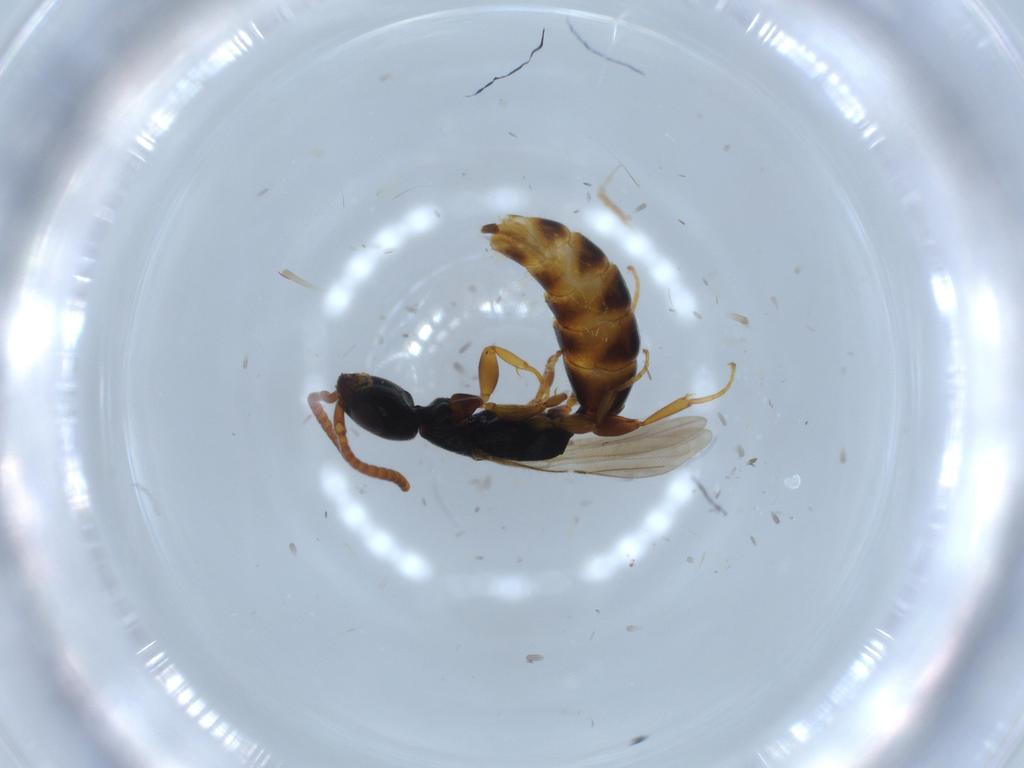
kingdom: Animalia
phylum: Arthropoda
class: Insecta
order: Hymenoptera
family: Bethylidae
